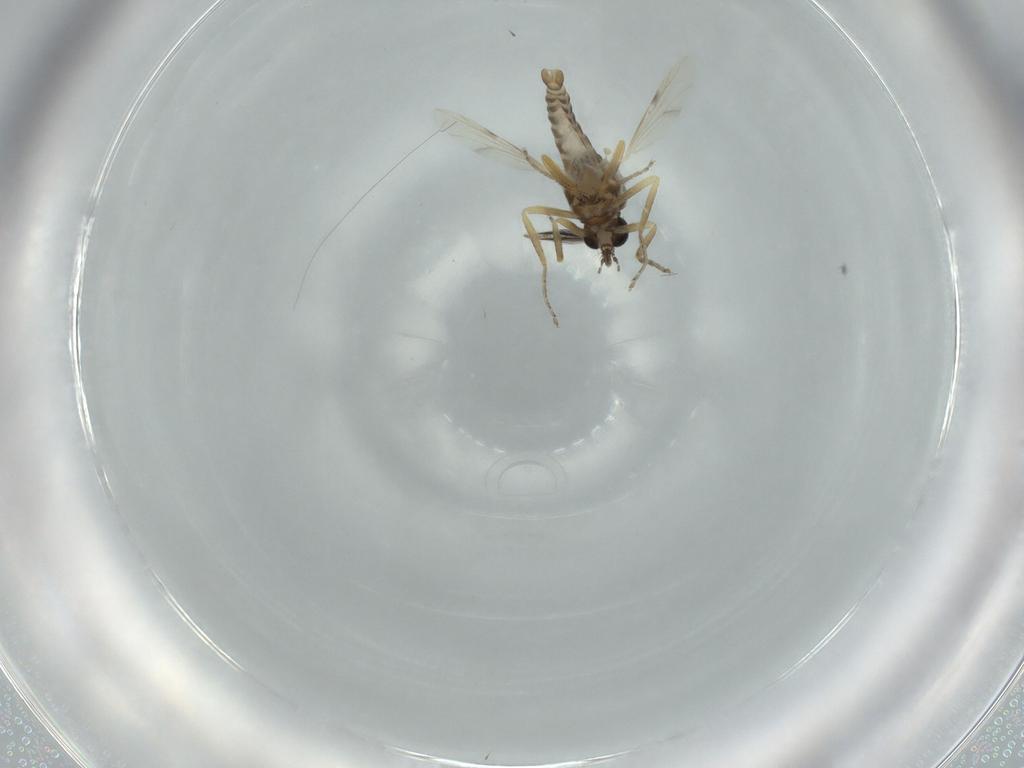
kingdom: Animalia
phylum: Arthropoda
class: Insecta
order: Diptera
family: Ceratopogonidae
